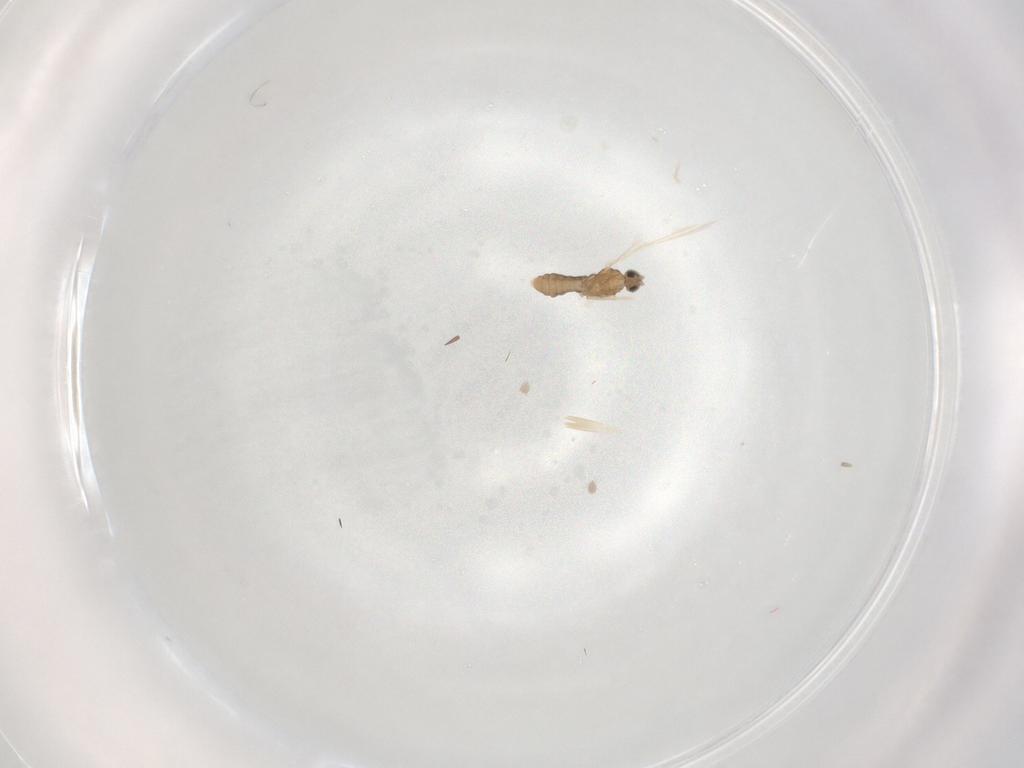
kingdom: Animalia
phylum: Arthropoda
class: Insecta
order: Diptera
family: Cecidomyiidae
